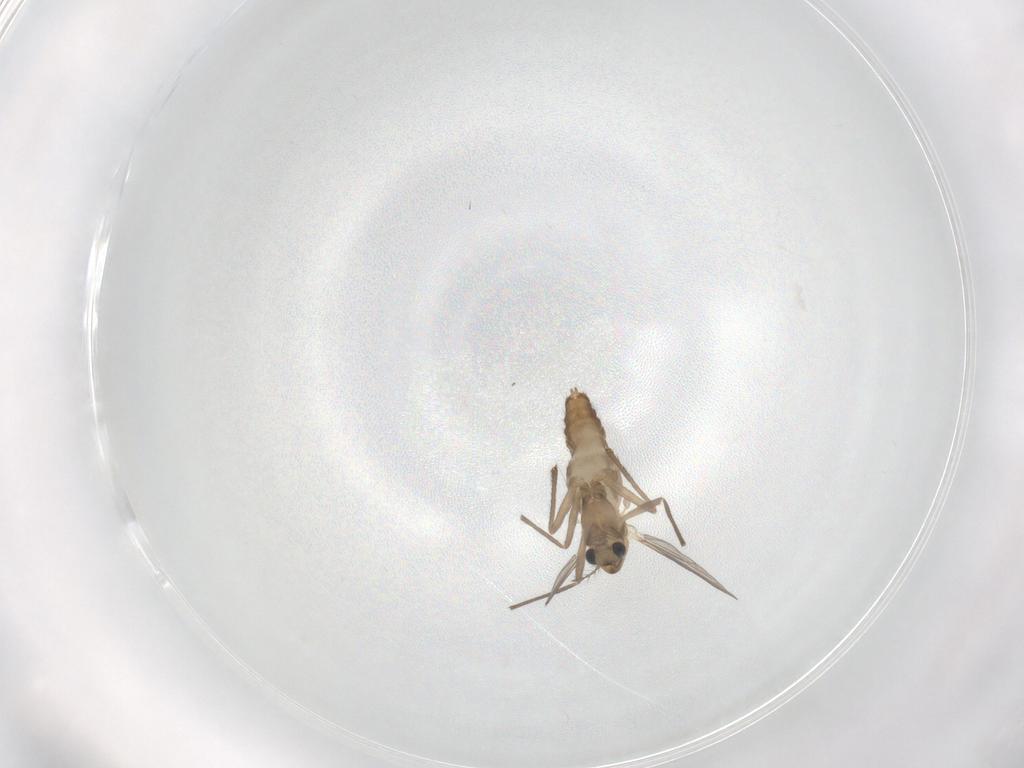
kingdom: Animalia
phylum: Arthropoda
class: Insecta
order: Diptera
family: Chironomidae
